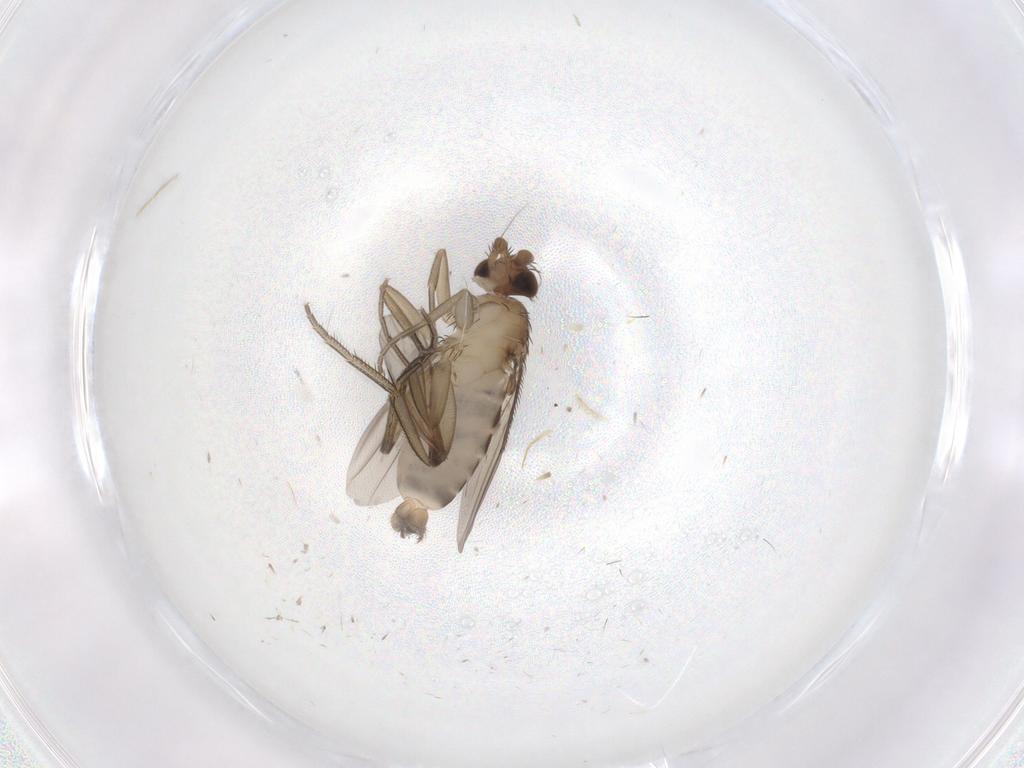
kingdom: Animalia
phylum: Arthropoda
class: Insecta
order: Diptera
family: Phoridae
